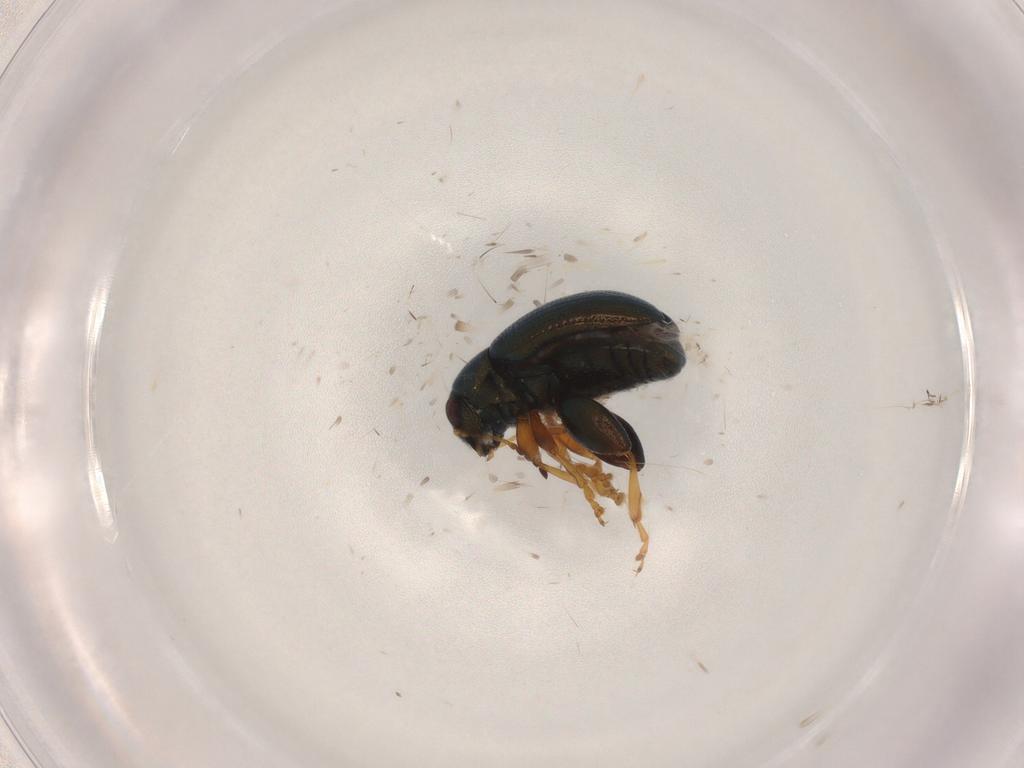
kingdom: Animalia
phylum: Arthropoda
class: Insecta
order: Coleoptera
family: Chrysomelidae
